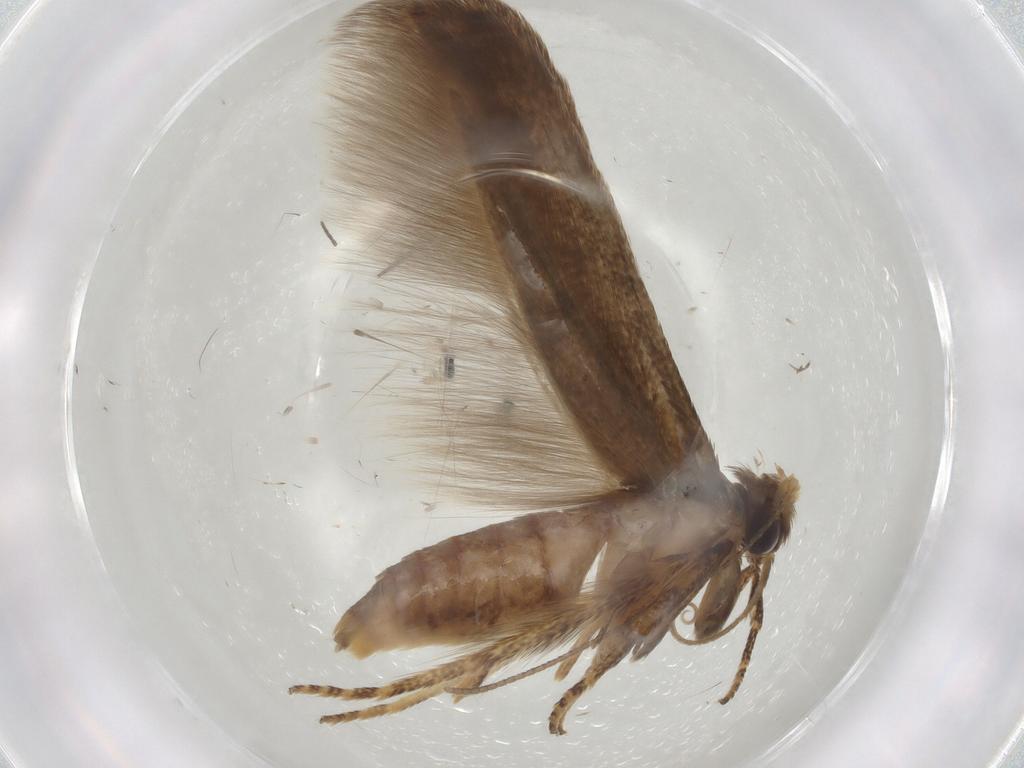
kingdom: Animalia
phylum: Arthropoda
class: Insecta
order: Lepidoptera
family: Blastobasidae
